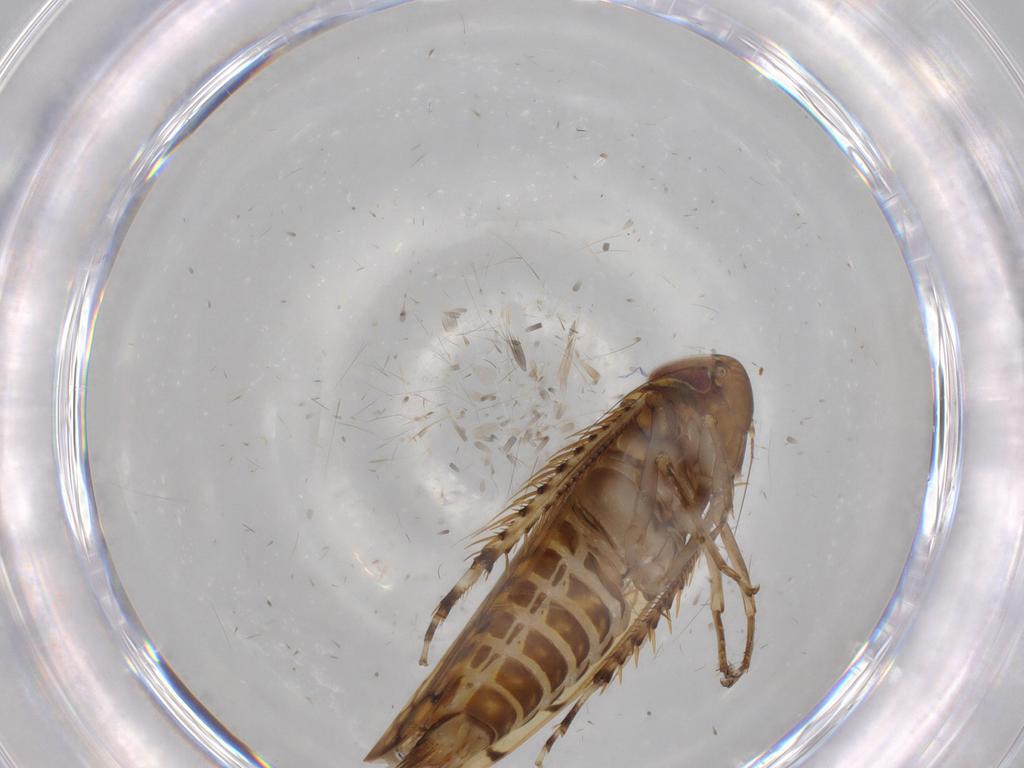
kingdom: Animalia
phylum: Arthropoda
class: Insecta
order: Hemiptera
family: Cicadellidae
